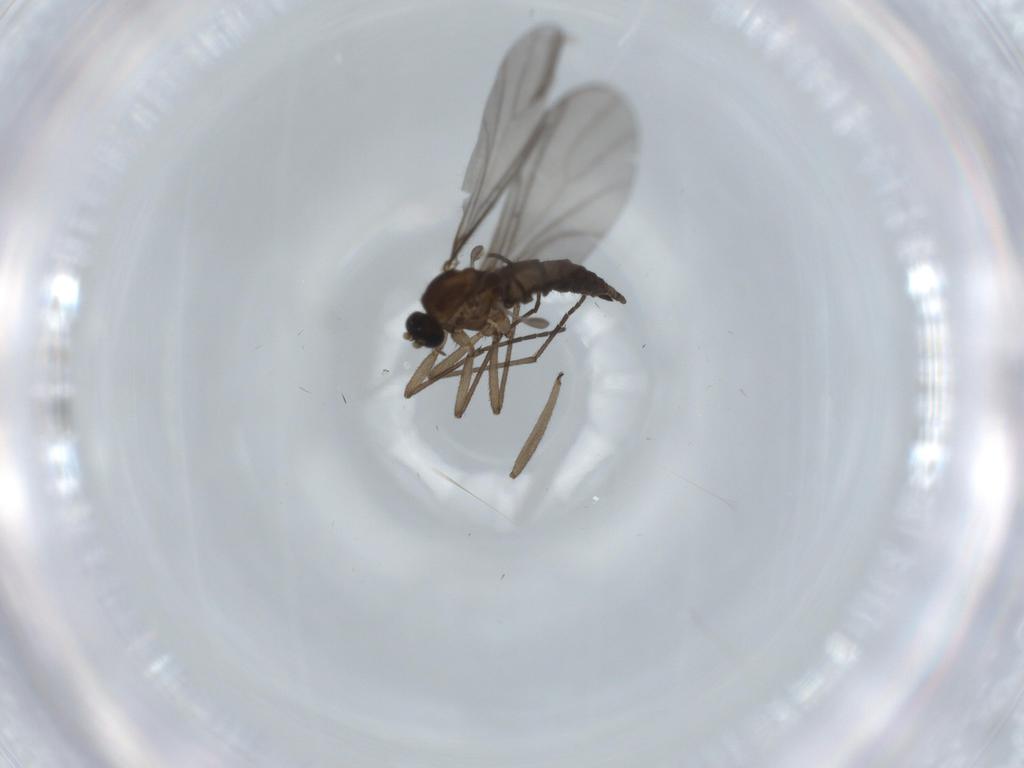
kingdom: Animalia
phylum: Arthropoda
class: Insecta
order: Diptera
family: Sciaridae
